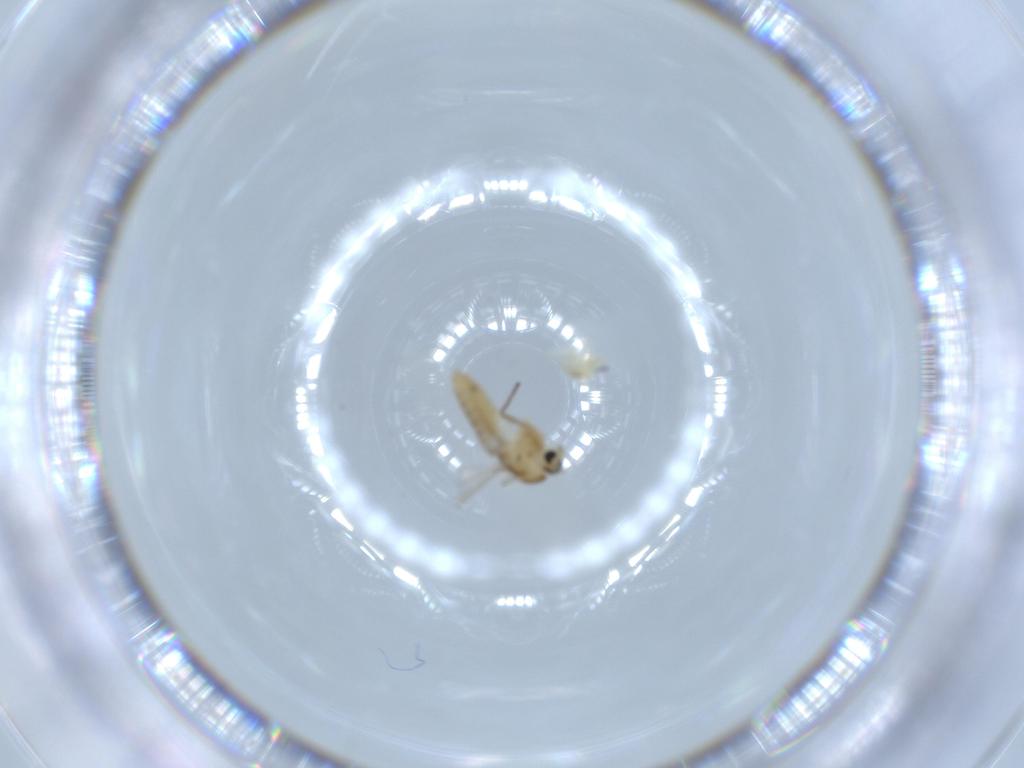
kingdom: Animalia
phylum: Arthropoda
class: Insecta
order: Diptera
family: Chironomidae
